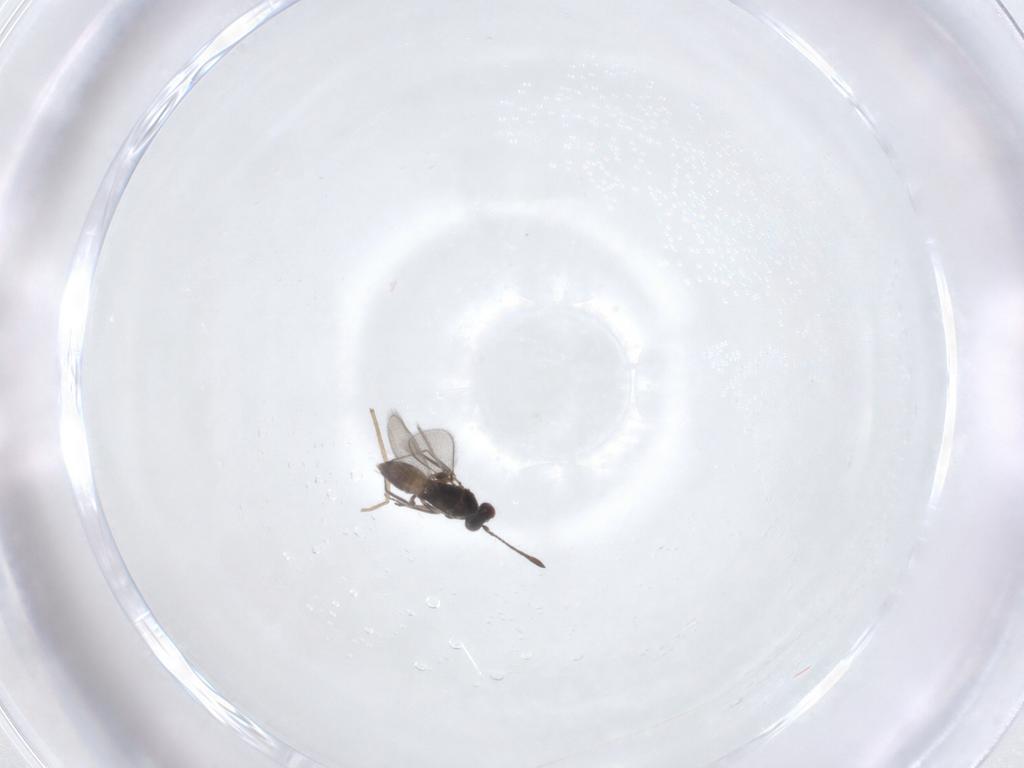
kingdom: Animalia
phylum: Arthropoda
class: Insecta
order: Hymenoptera
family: Mymaridae
